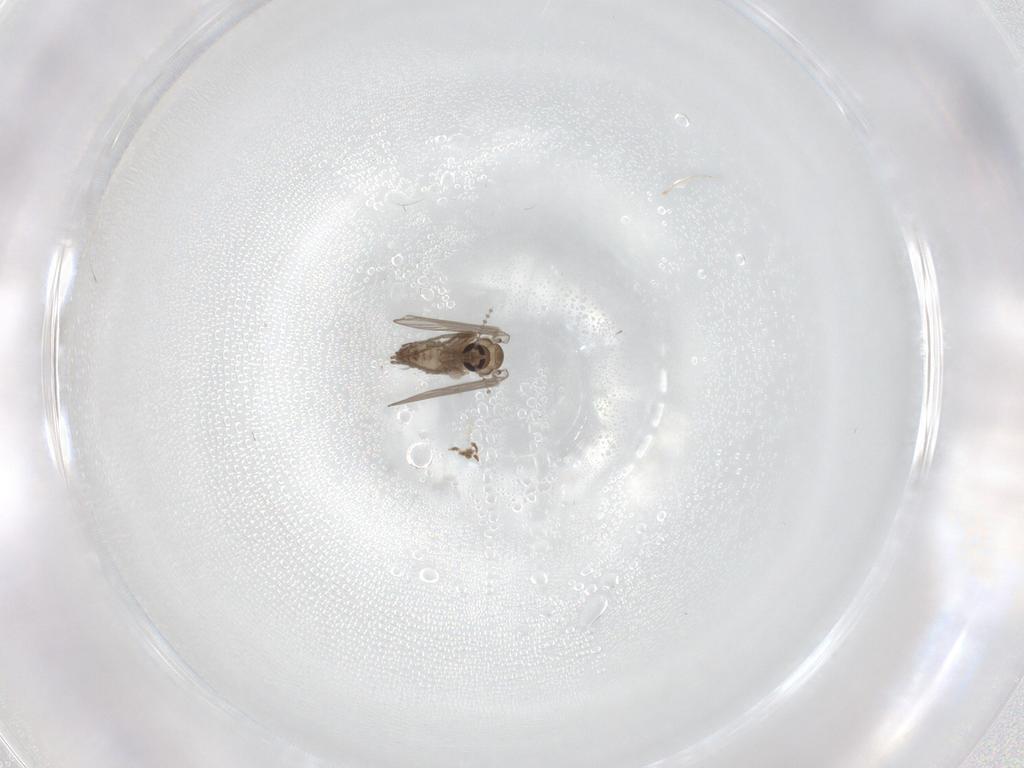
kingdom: Animalia
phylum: Arthropoda
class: Insecta
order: Diptera
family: Psychodidae
